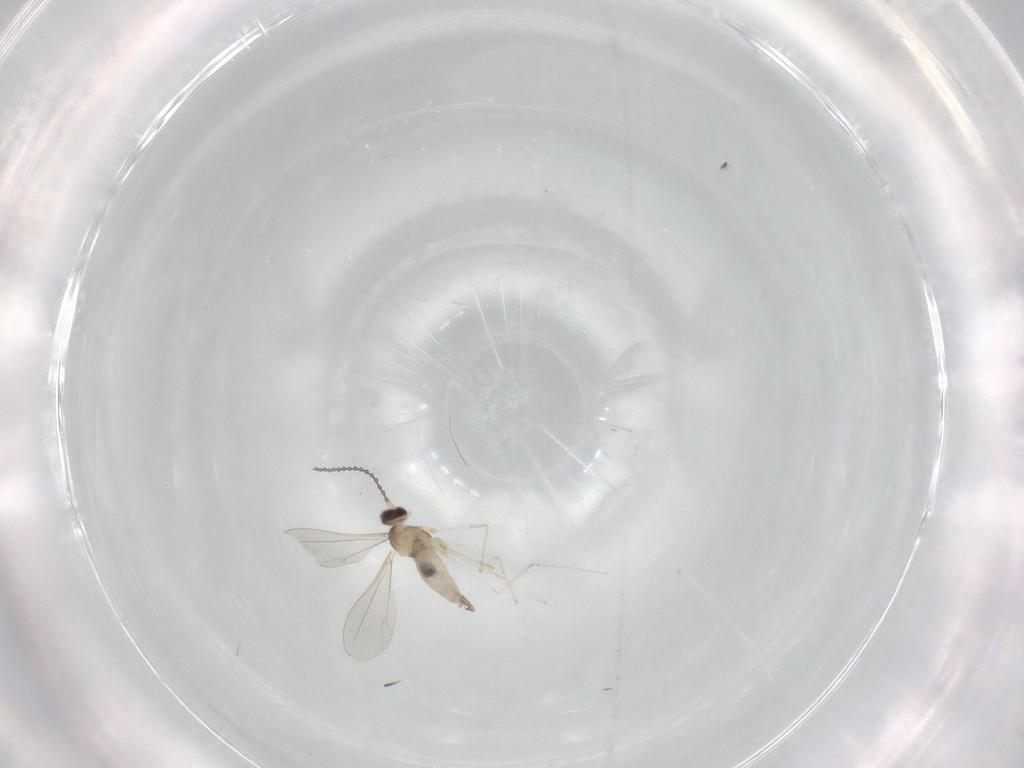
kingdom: Animalia
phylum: Arthropoda
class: Insecta
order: Diptera
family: Cecidomyiidae
